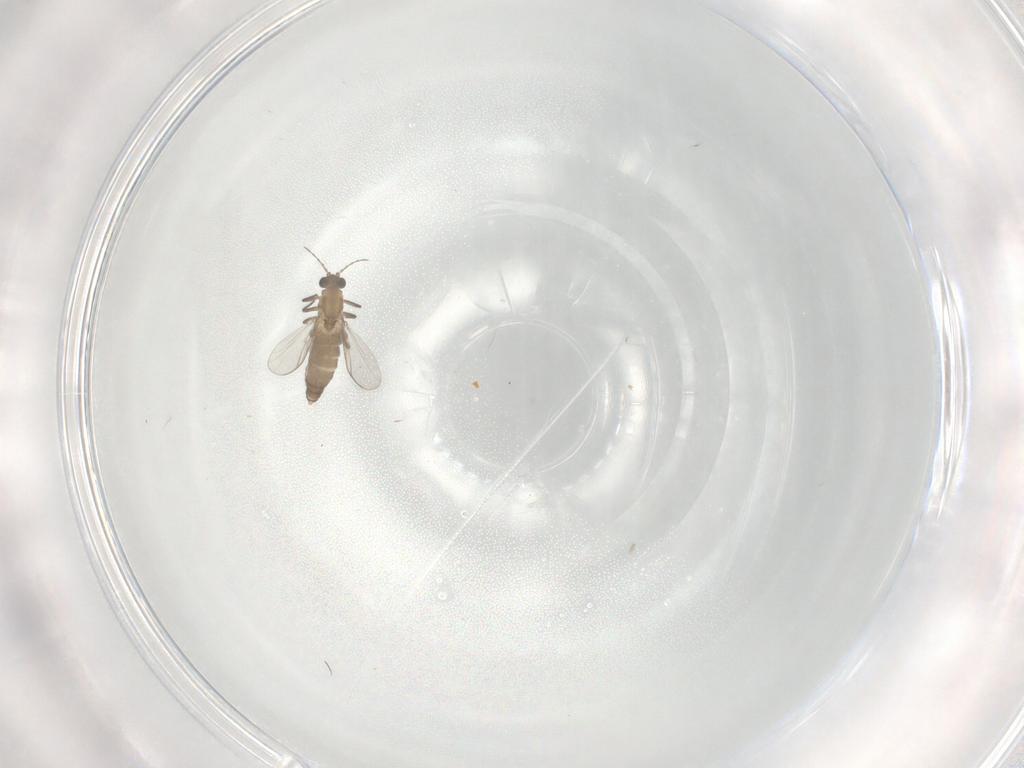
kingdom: Animalia
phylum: Arthropoda
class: Insecta
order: Diptera
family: Chironomidae
